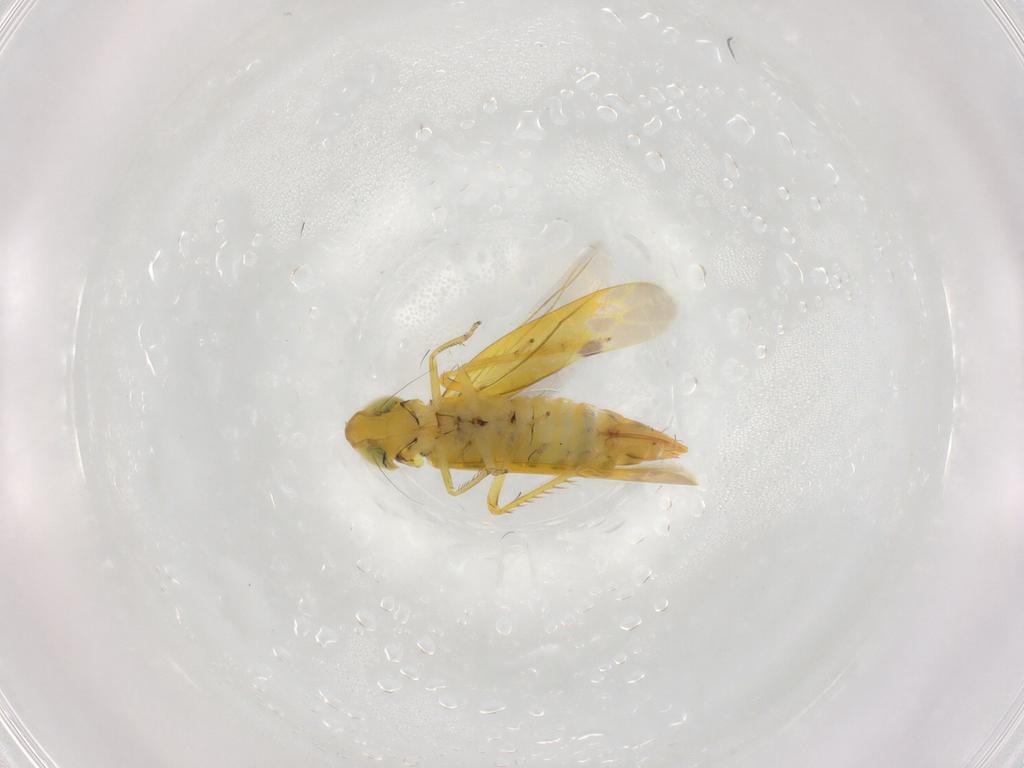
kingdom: Animalia
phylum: Arthropoda
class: Insecta
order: Hemiptera
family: Cicadellidae
